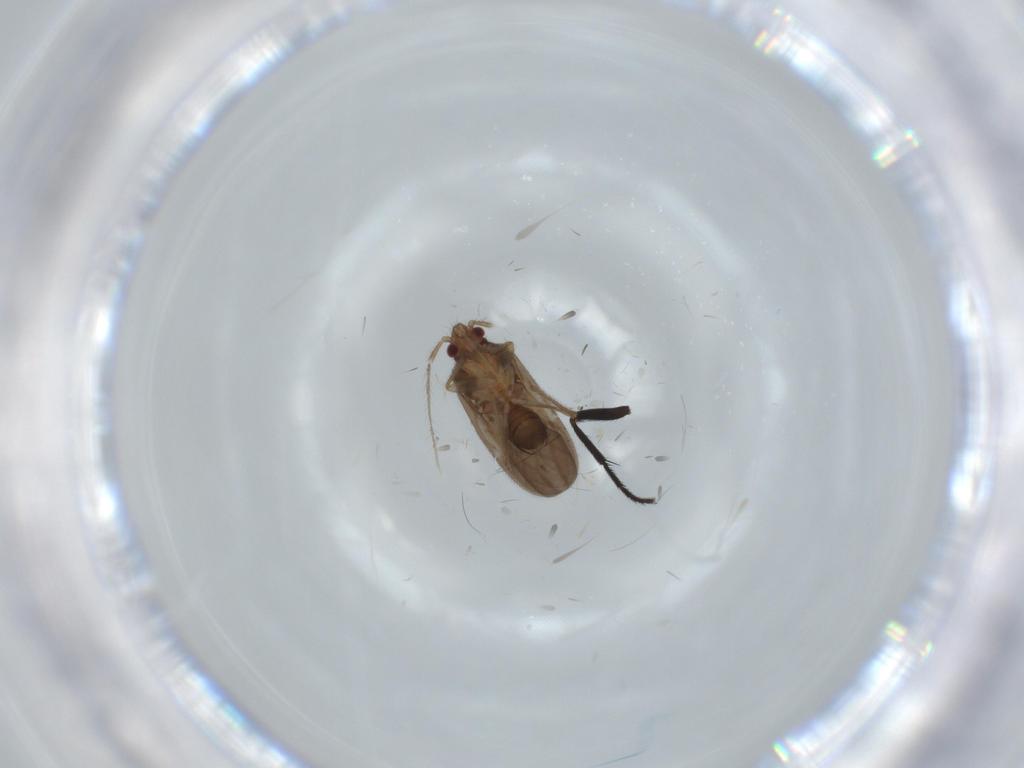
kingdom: Animalia
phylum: Arthropoda
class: Insecta
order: Hemiptera
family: Ceratocombidae
